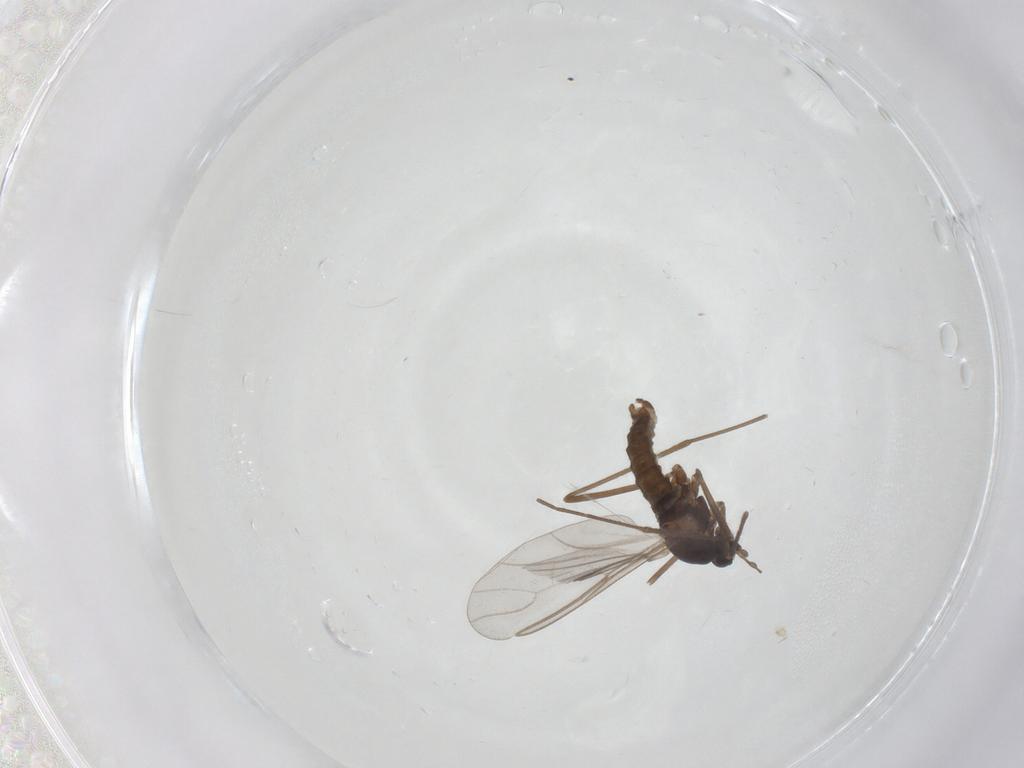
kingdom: Animalia
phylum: Arthropoda
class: Insecta
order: Diptera
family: Cecidomyiidae
